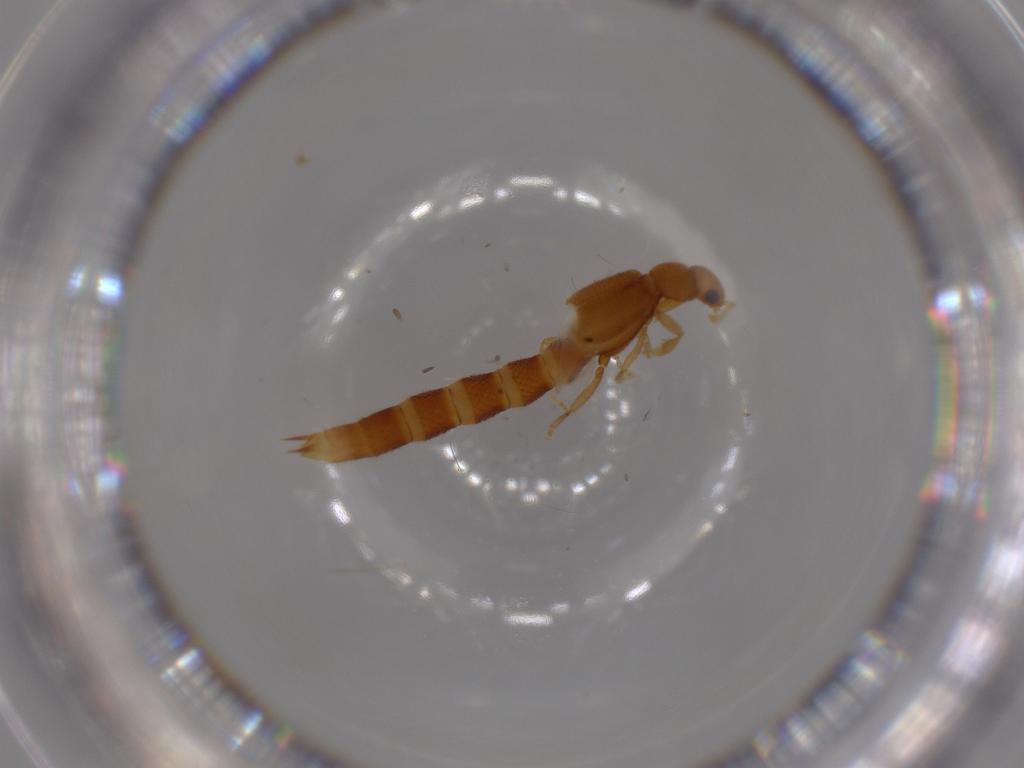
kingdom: Animalia
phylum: Arthropoda
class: Insecta
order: Coleoptera
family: Staphylinidae
